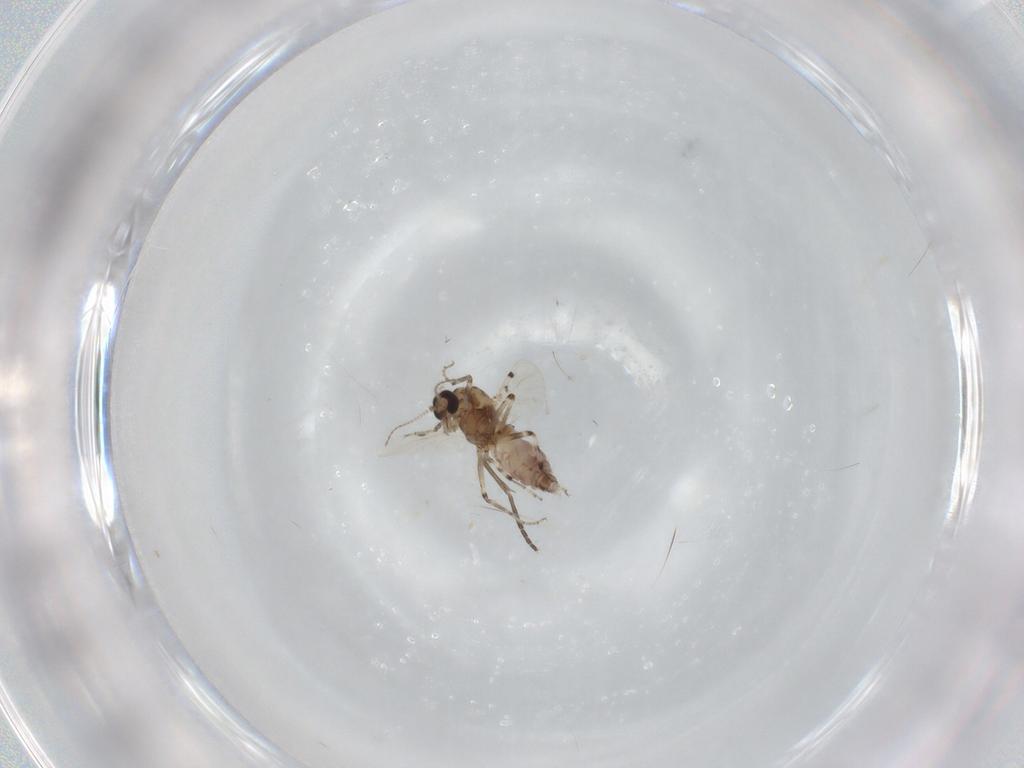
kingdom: Animalia
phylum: Arthropoda
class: Insecta
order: Diptera
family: Ceratopogonidae
